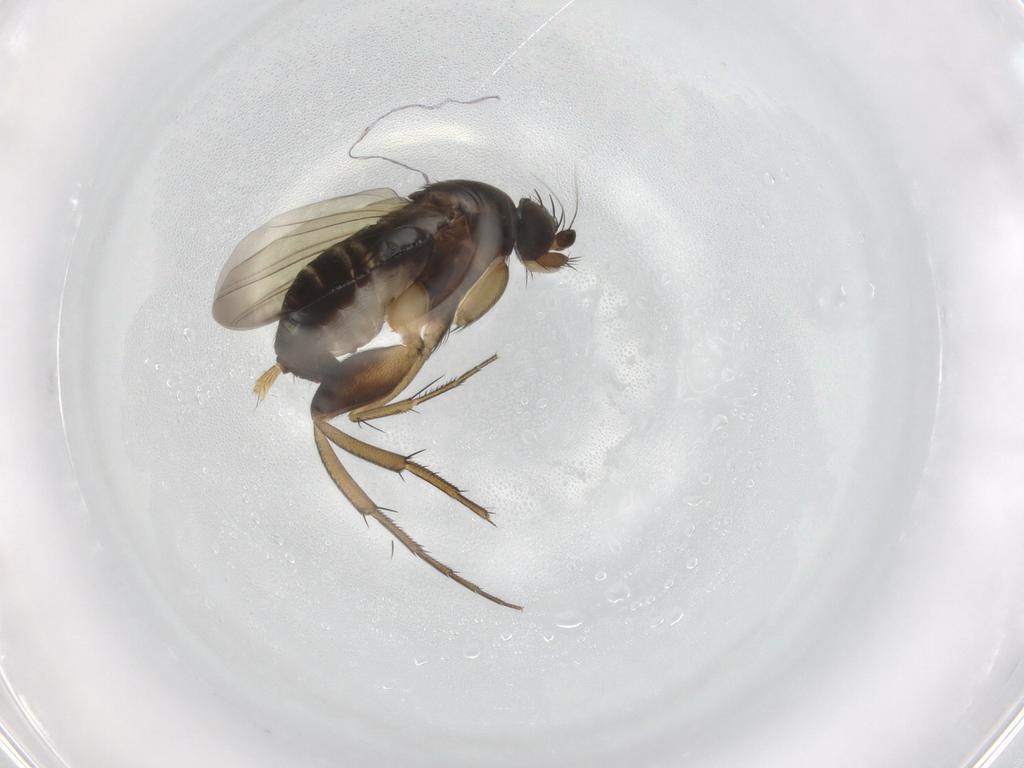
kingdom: Animalia
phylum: Arthropoda
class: Insecta
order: Diptera
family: Phoridae
